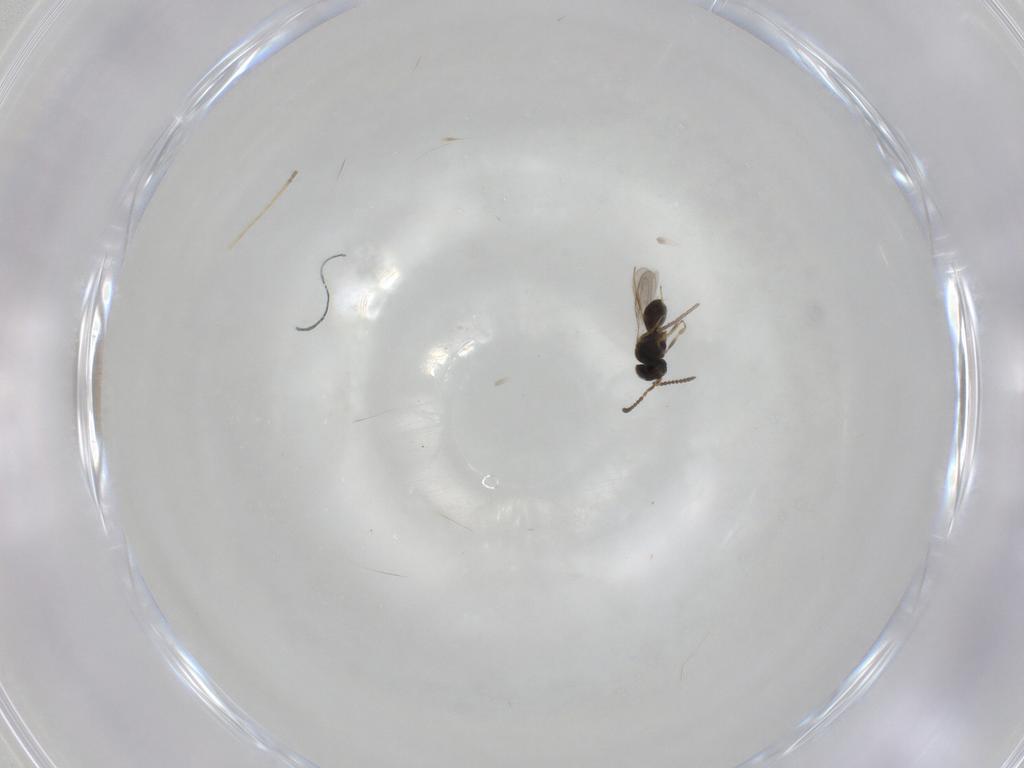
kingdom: Animalia
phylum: Arthropoda
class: Insecta
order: Hymenoptera
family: Scelionidae
